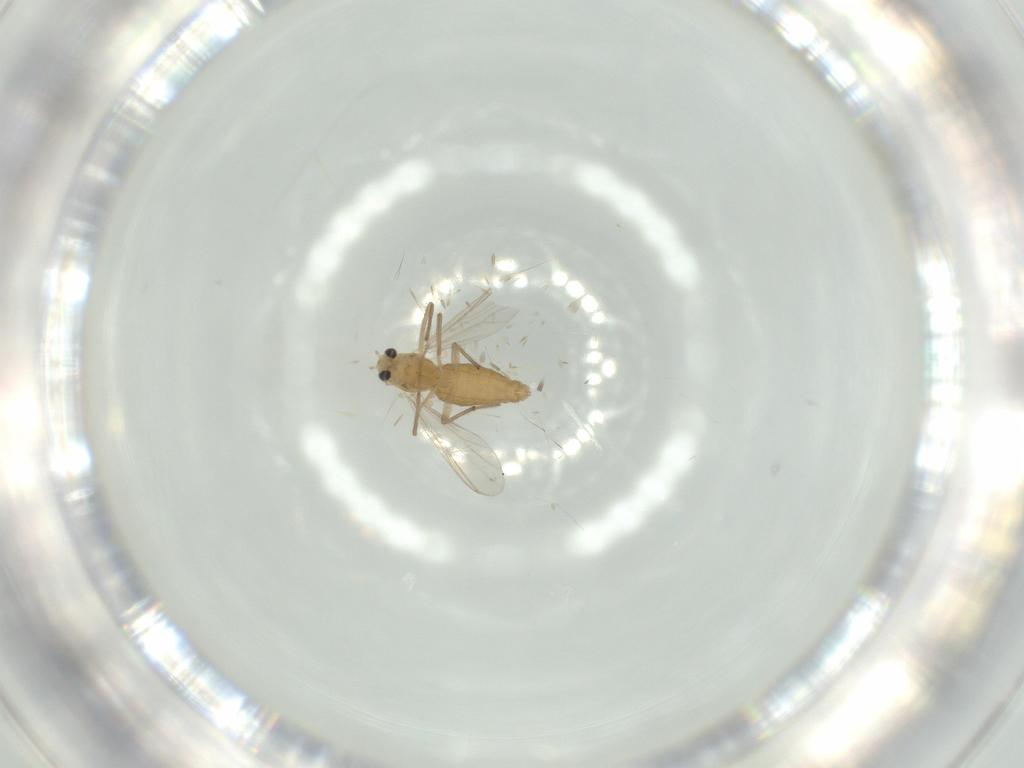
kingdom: Animalia
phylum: Arthropoda
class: Insecta
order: Diptera
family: Chironomidae
